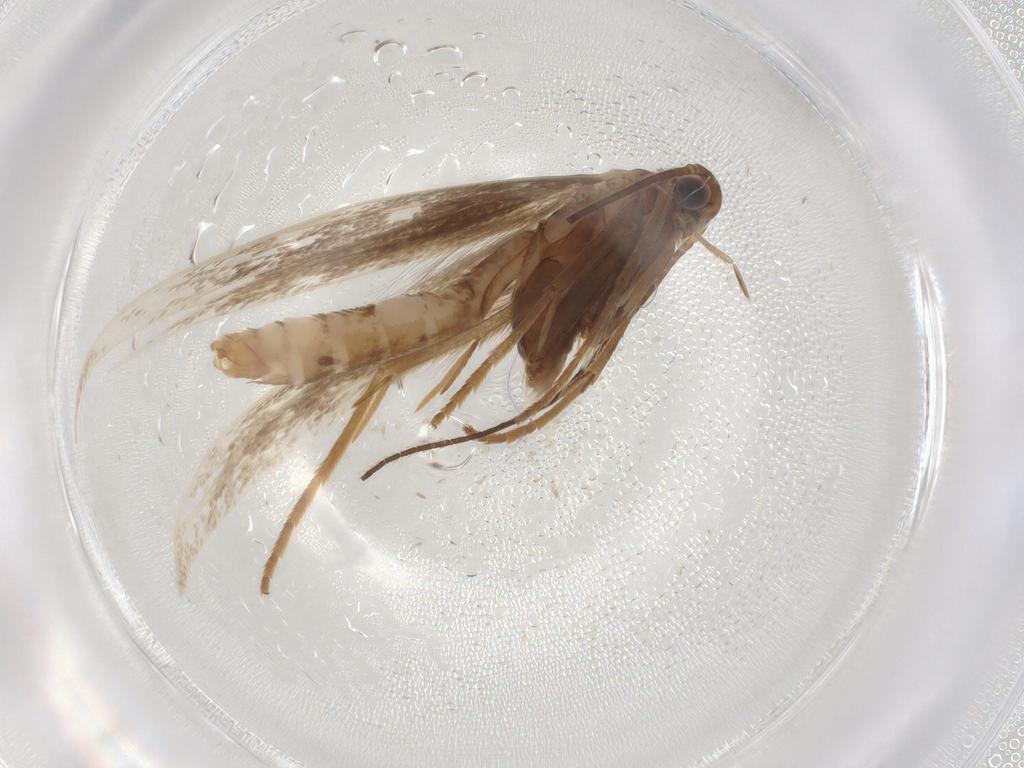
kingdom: Animalia
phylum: Arthropoda
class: Insecta
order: Lepidoptera
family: Coleophoridae
